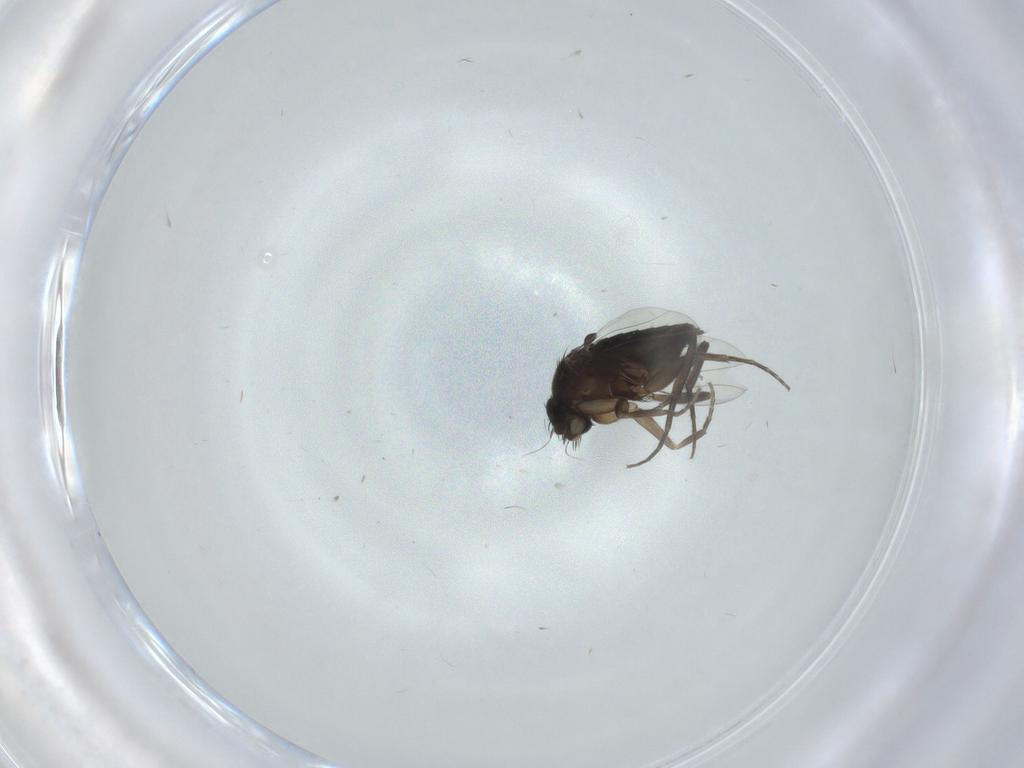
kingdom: Animalia
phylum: Arthropoda
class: Insecta
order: Diptera
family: Phoridae
